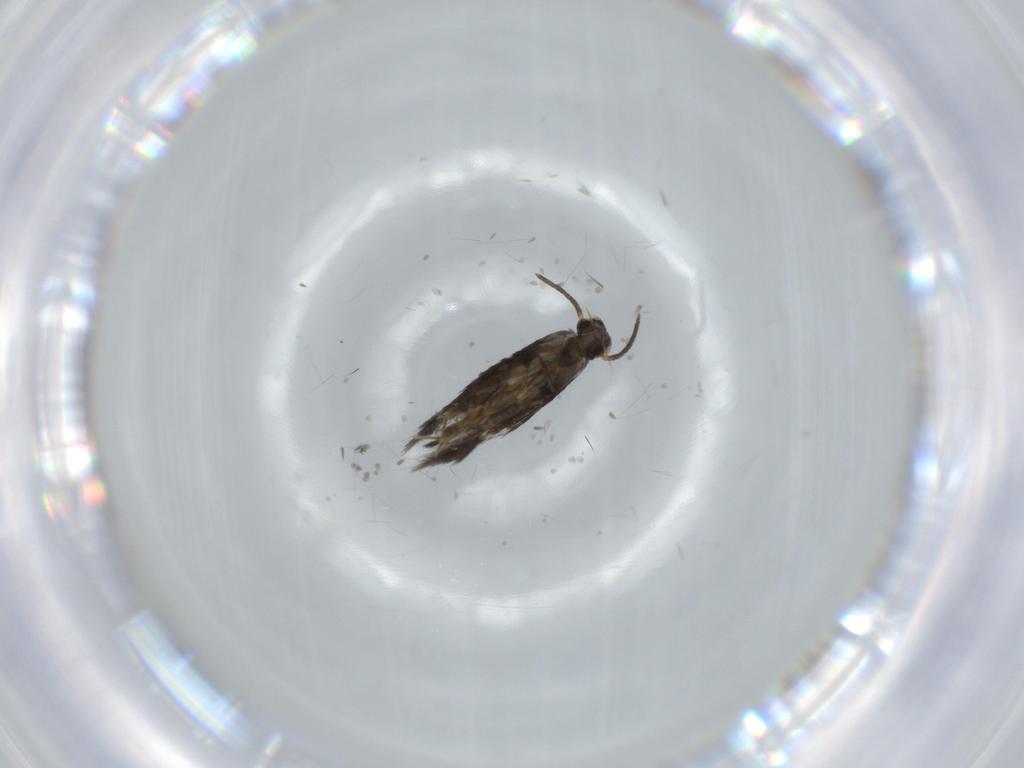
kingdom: Animalia
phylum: Arthropoda
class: Insecta
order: Lepidoptera
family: Heliozelidae
